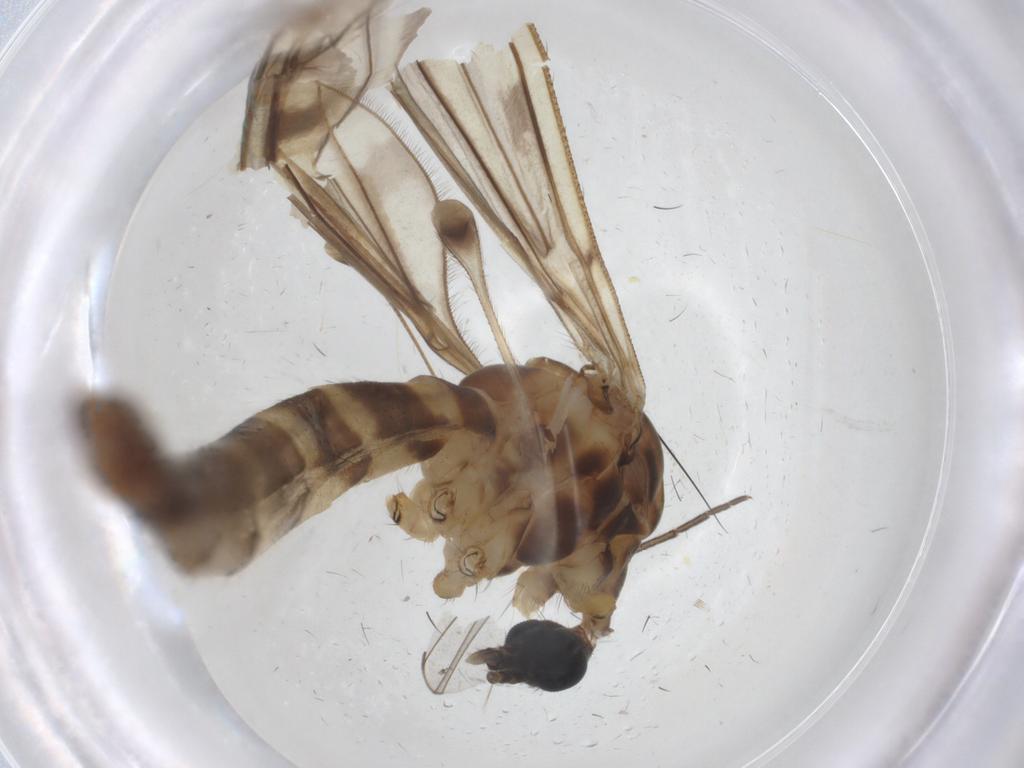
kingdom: Animalia
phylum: Arthropoda
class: Insecta
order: Diptera
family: Limoniidae
